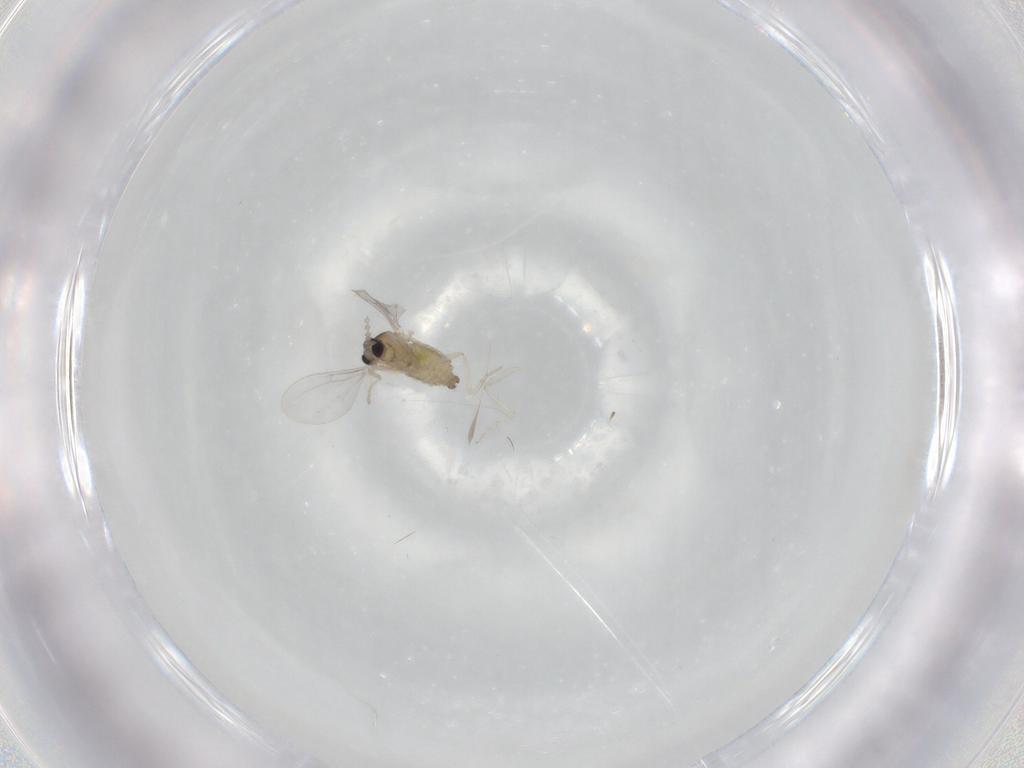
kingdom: Animalia
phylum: Arthropoda
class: Insecta
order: Diptera
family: Cecidomyiidae
